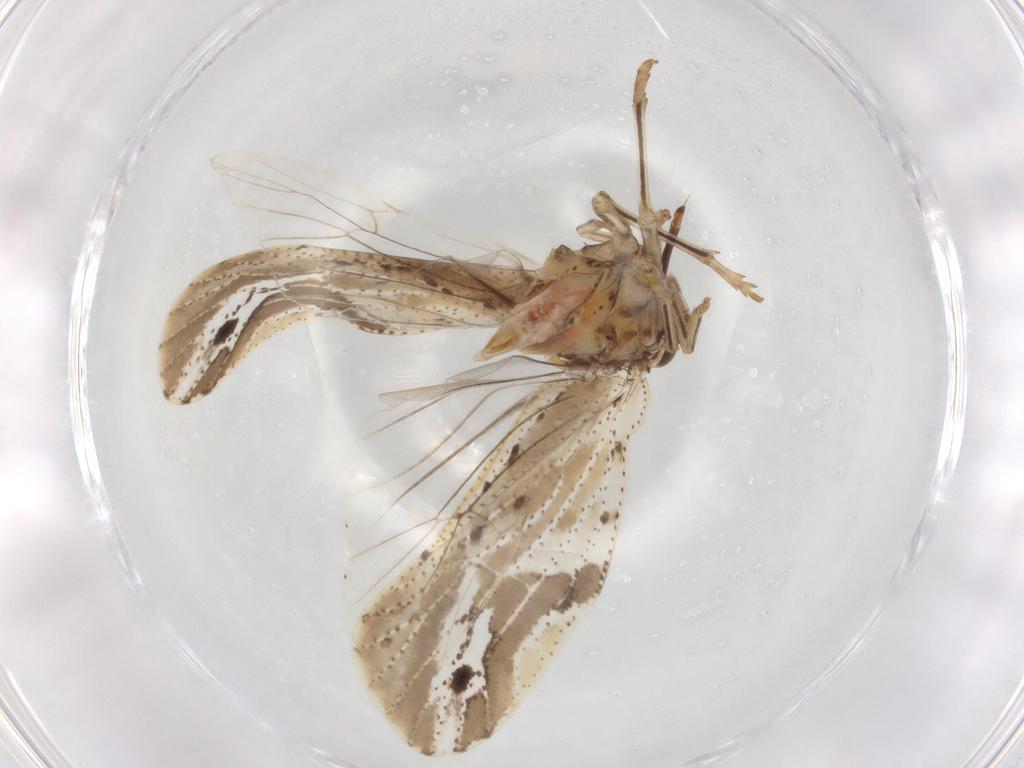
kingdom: Animalia
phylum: Arthropoda
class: Insecta
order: Hemiptera
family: Cixiidae
